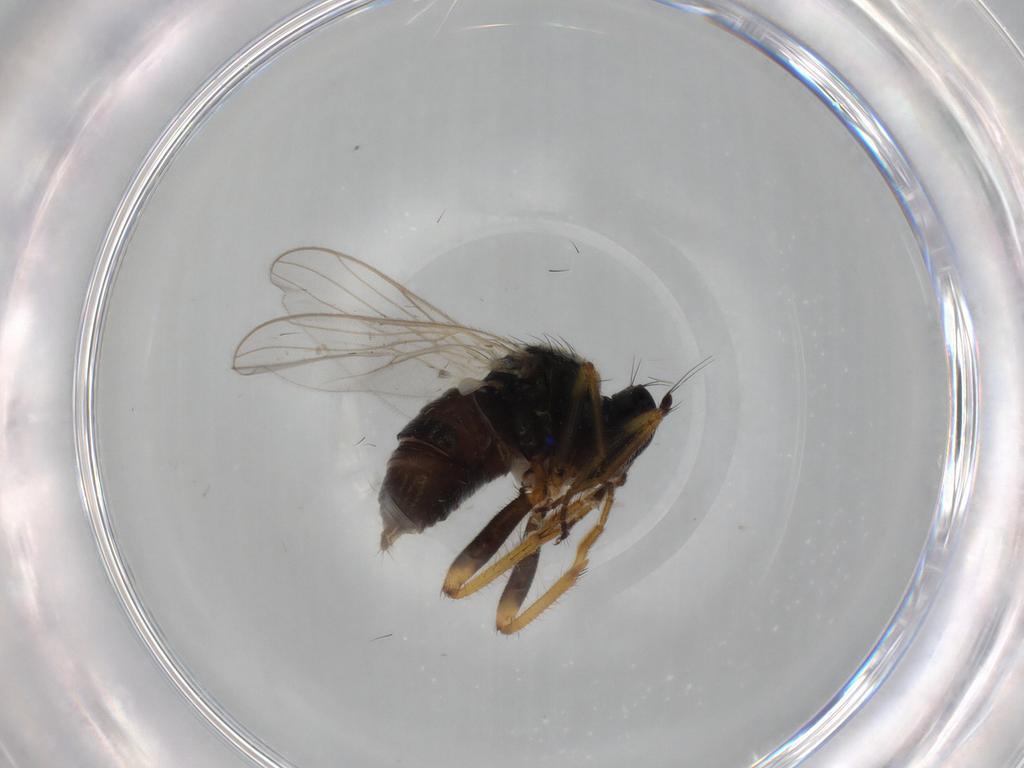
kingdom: Animalia
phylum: Arthropoda
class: Insecta
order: Diptera
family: Hybotidae
